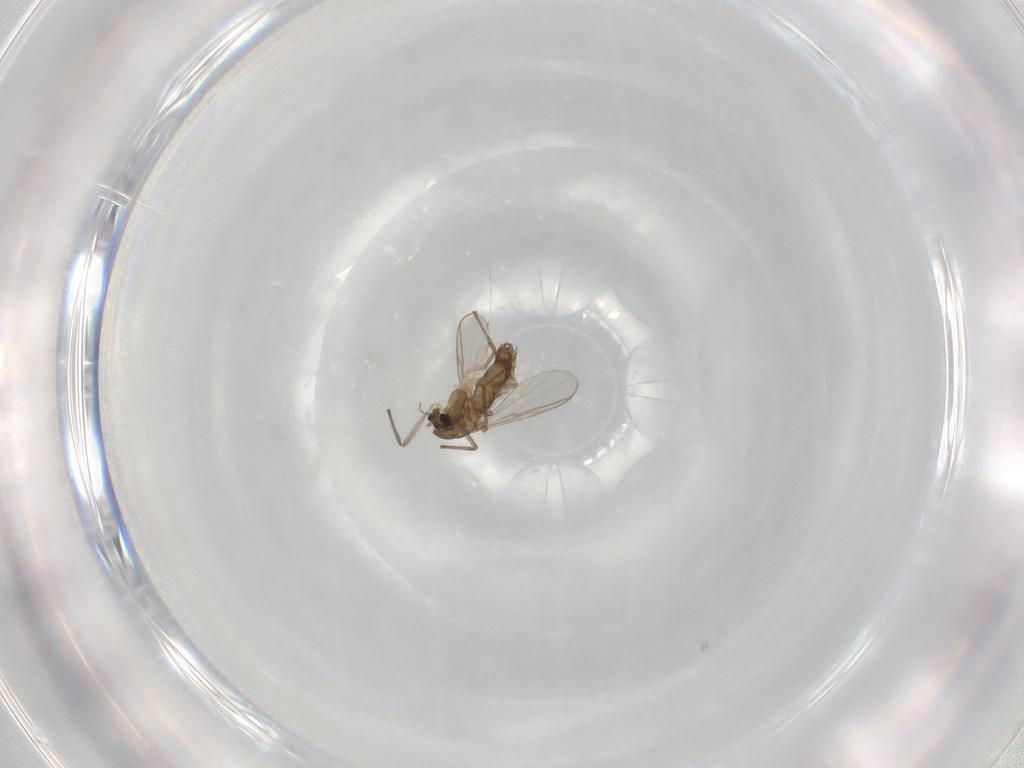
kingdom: Animalia
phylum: Arthropoda
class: Insecta
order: Diptera
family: Chironomidae
